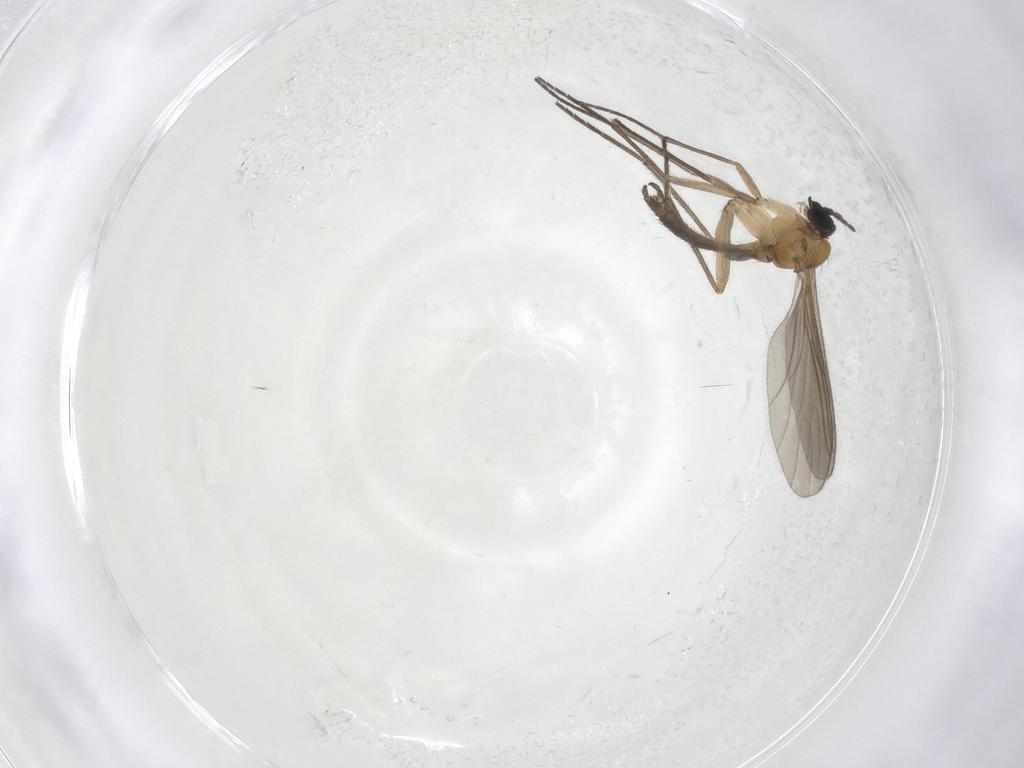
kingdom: Animalia
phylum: Arthropoda
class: Insecta
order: Diptera
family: Sciaridae
